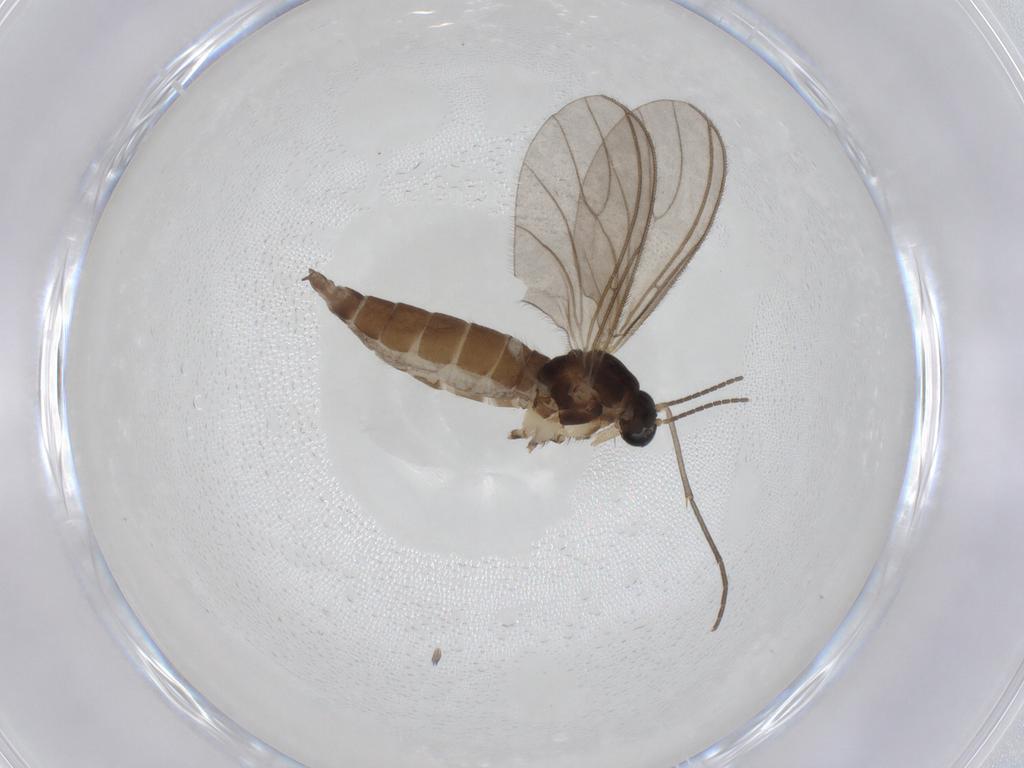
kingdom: Animalia
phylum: Arthropoda
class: Insecta
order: Diptera
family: Sciaridae
